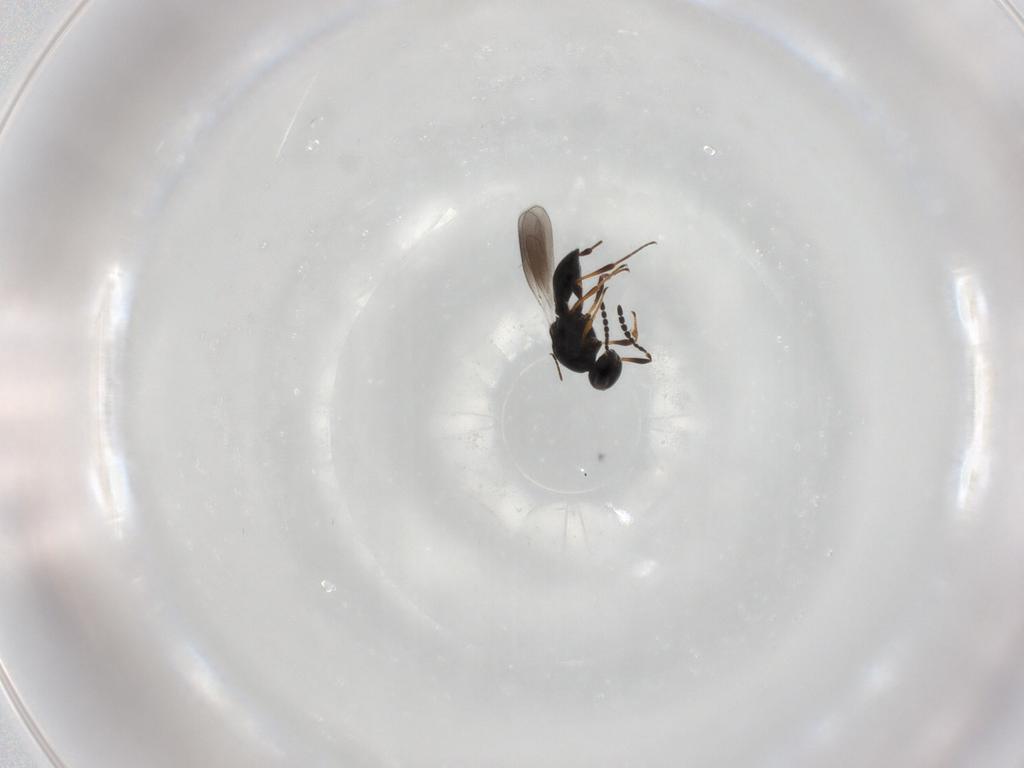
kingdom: Animalia
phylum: Arthropoda
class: Insecta
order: Hymenoptera
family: Platygastridae
